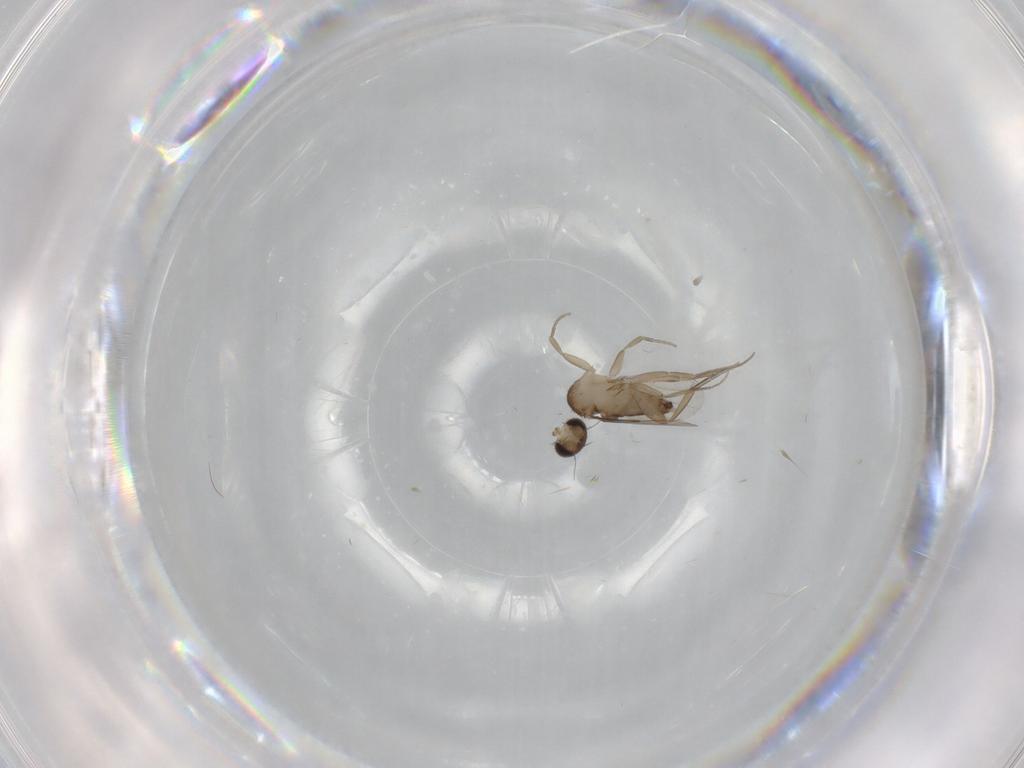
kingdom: Animalia
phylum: Arthropoda
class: Insecta
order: Diptera
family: Phoridae
